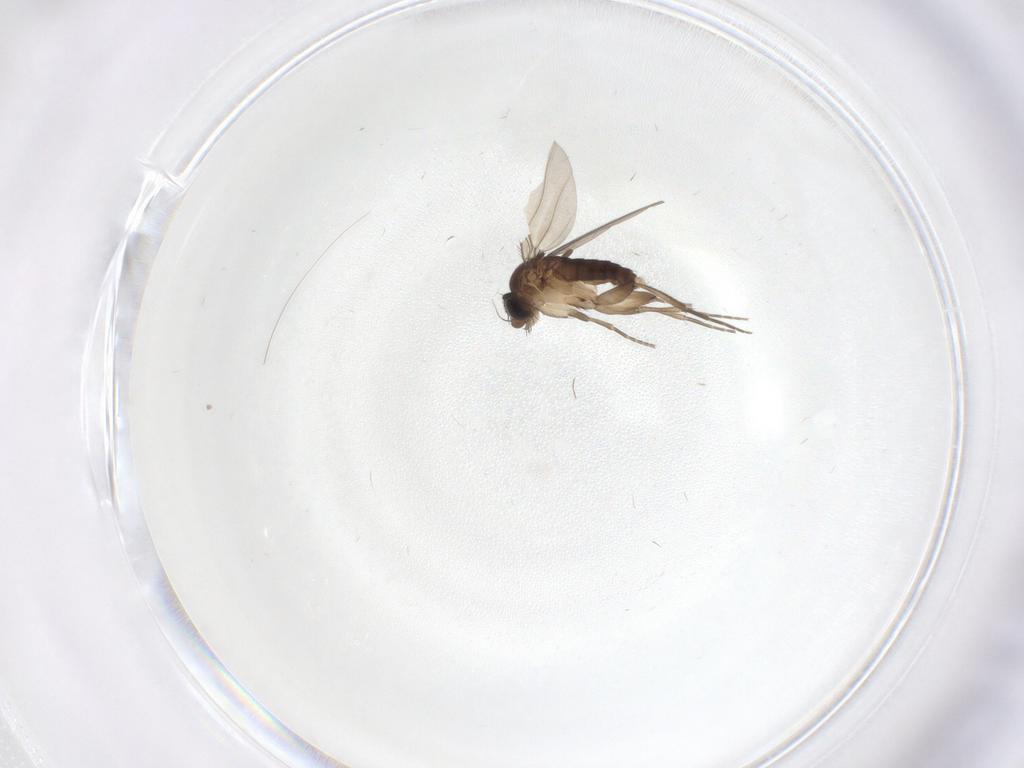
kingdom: Animalia
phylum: Arthropoda
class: Insecta
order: Diptera
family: Phoridae
